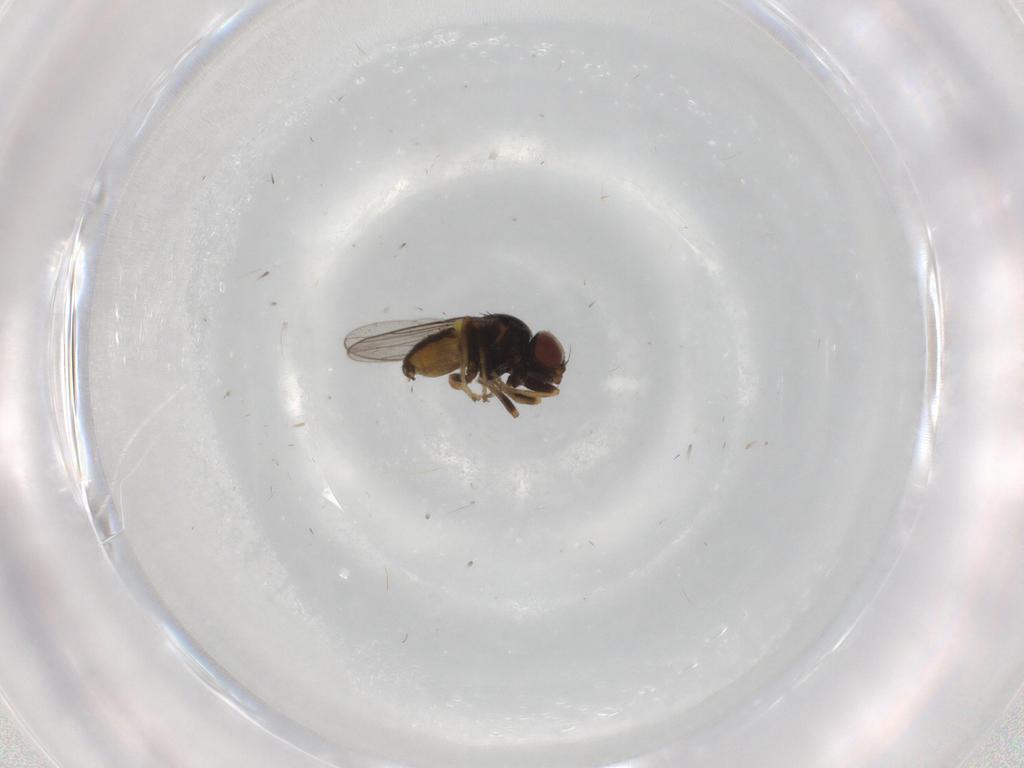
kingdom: Animalia
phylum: Arthropoda
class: Insecta
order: Diptera
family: Chloropidae
